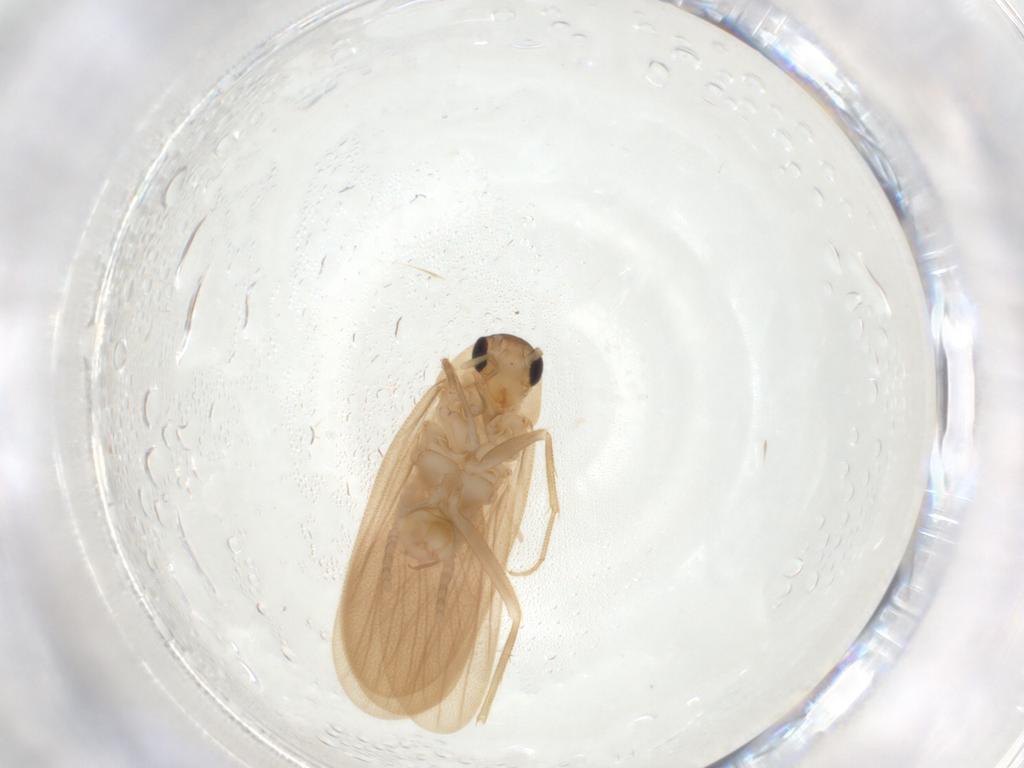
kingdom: Animalia
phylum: Arthropoda
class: Insecta
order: Blattodea
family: Nocticolidae
